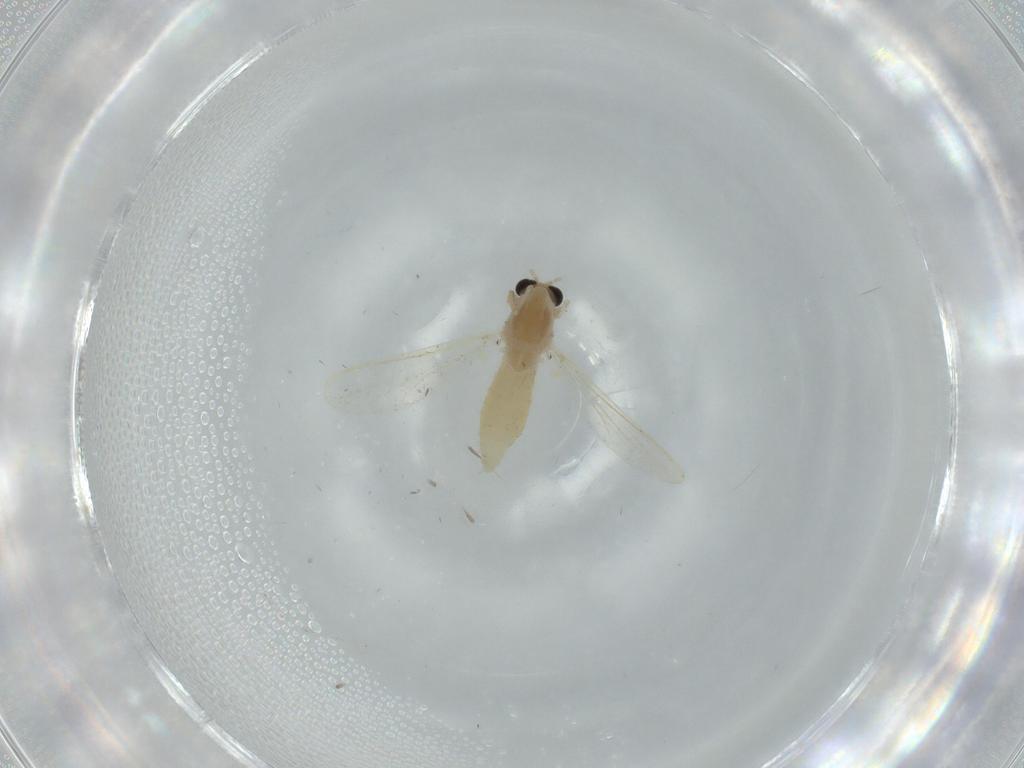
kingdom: Animalia
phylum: Arthropoda
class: Insecta
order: Diptera
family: Chironomidae
